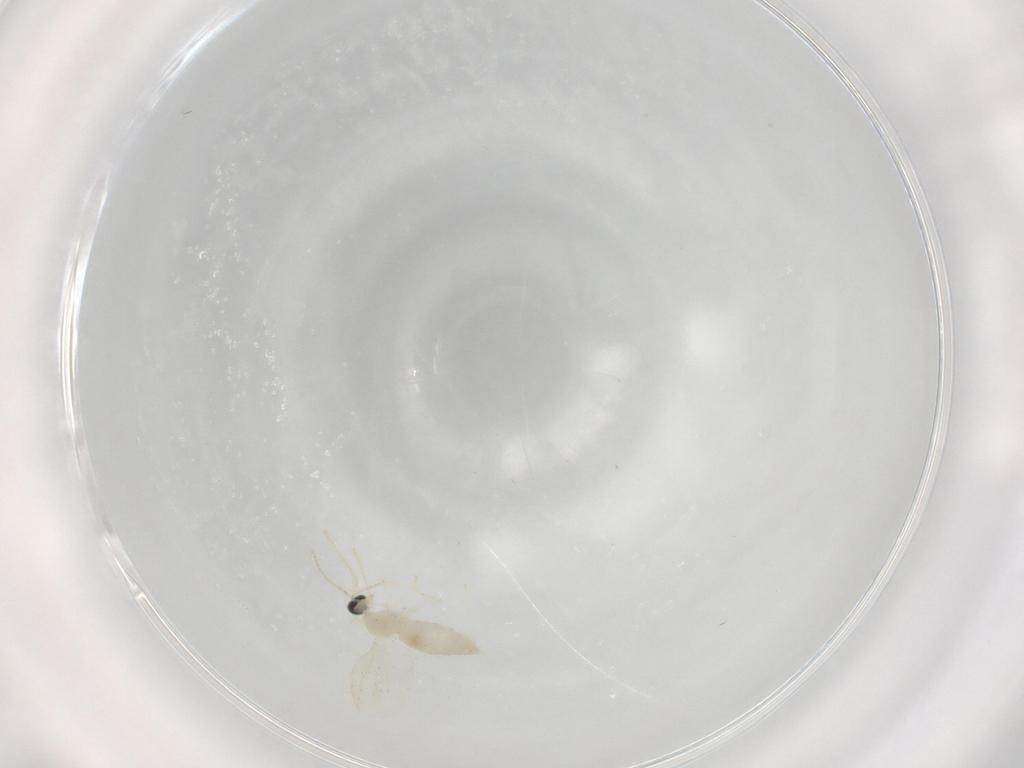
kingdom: Animalia
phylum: Arthropoda
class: Insecta
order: Diptera
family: Cecidomyiidae
